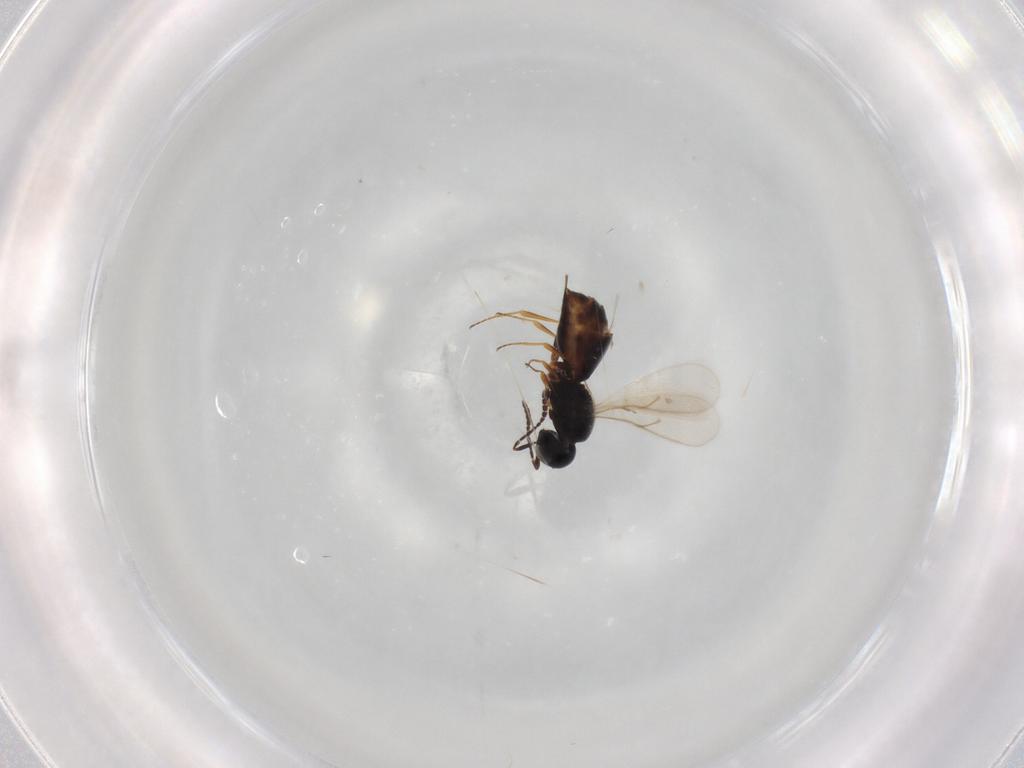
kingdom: Animalia
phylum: Arthropoda
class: Insecta
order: Hymenoptera
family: Scelionidae
